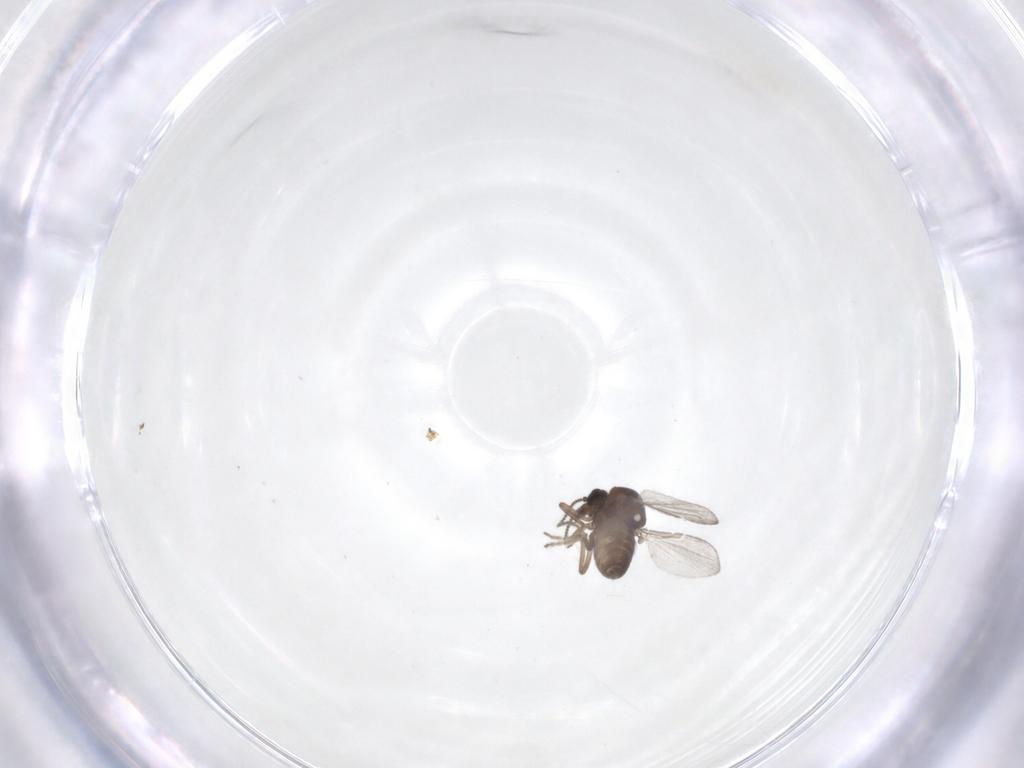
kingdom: Animalia
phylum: Arthropoda
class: Insecta
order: Diptera
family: Ceratopogonidae
